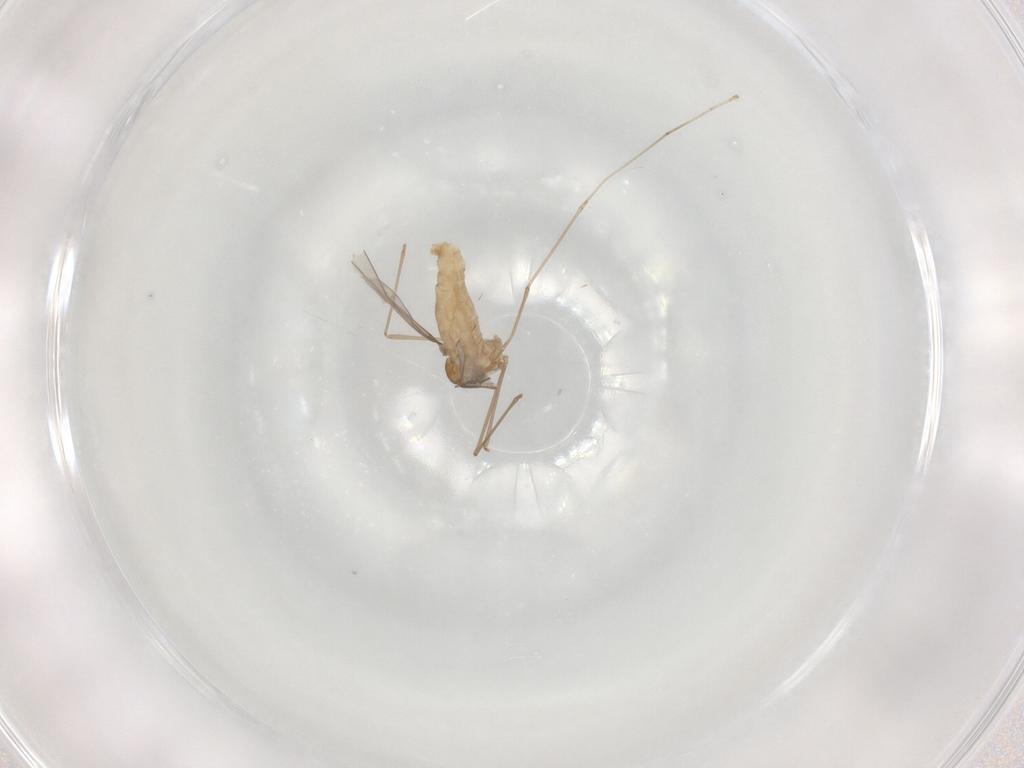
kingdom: Animalia
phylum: Arthropoda
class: Insecta
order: Diptera
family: Cecidomyiidae
